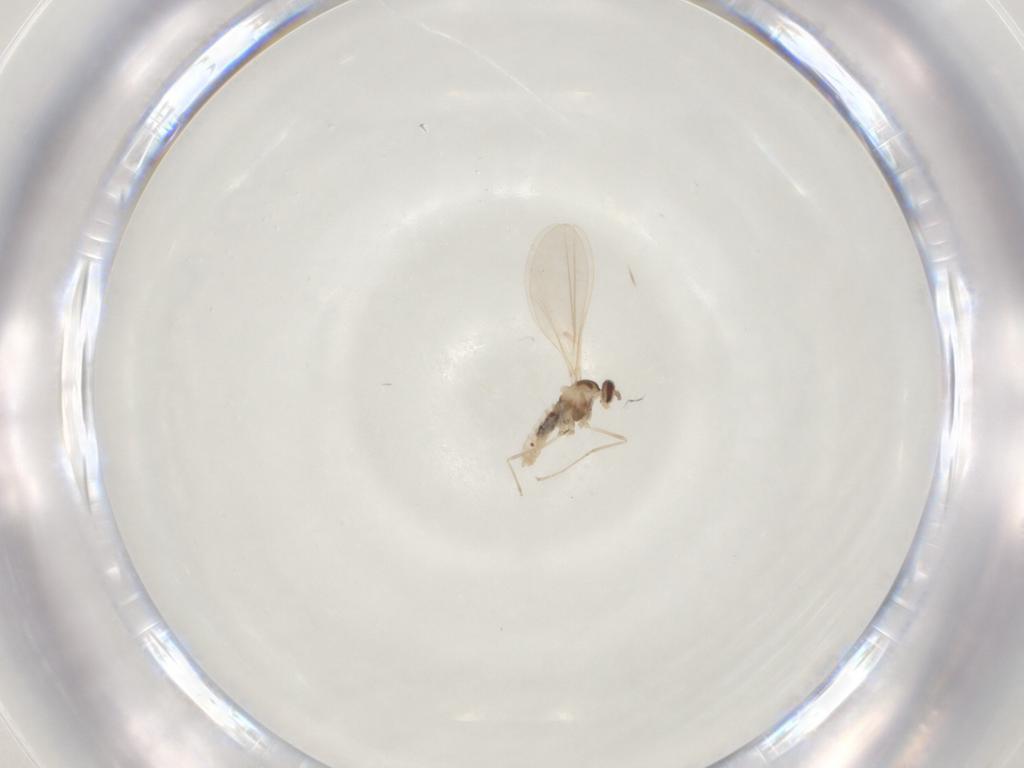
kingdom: Animalia
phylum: Arthropoda
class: Insecta
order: Diptera
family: Cecidomyiidae
